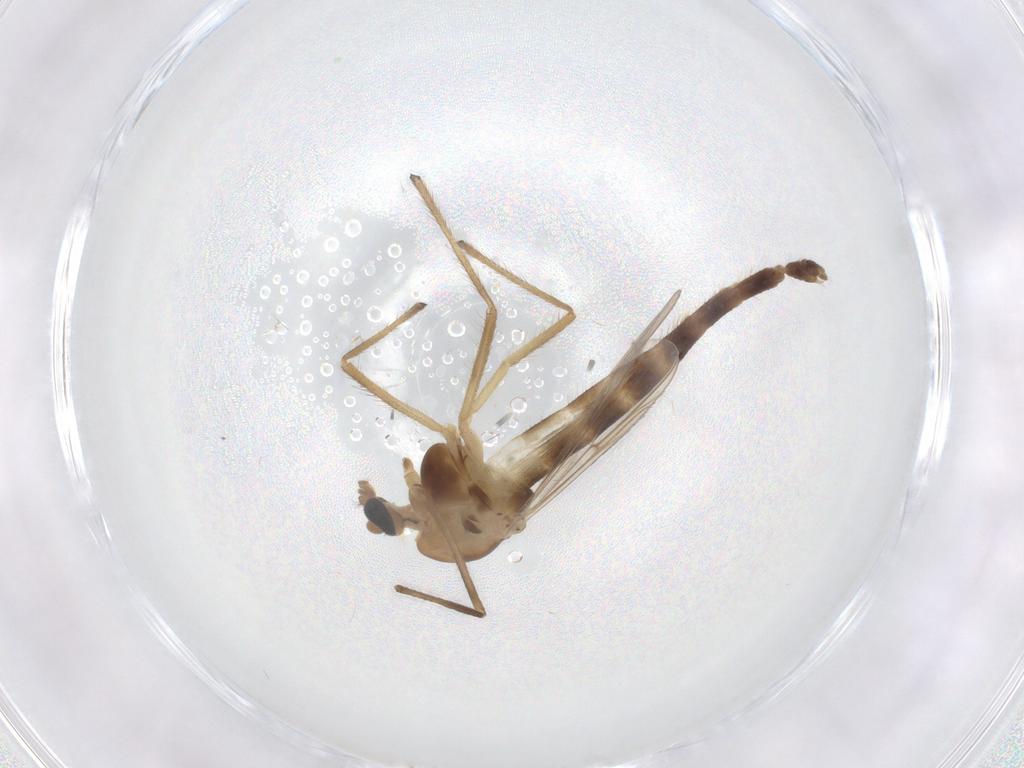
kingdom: Animalia
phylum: Arthropoda
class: Insecta
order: Diptera
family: Chironomidae
